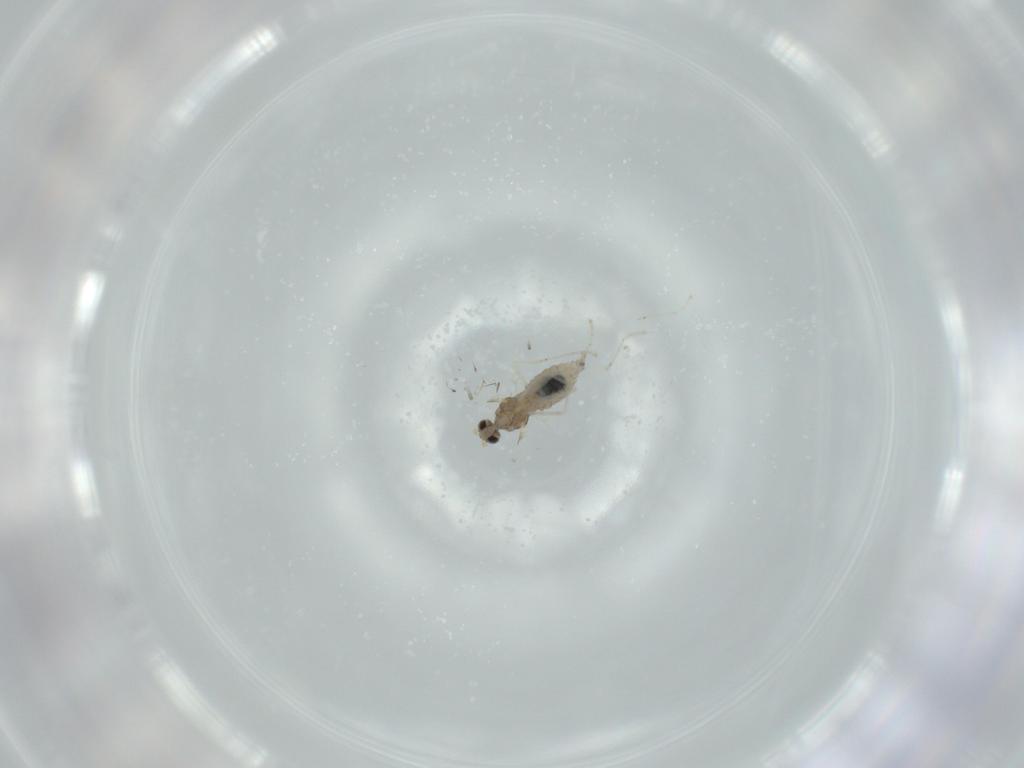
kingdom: Animalia
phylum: Arthropoda
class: Insecta
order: Diptera
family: Cecidomyiidae
